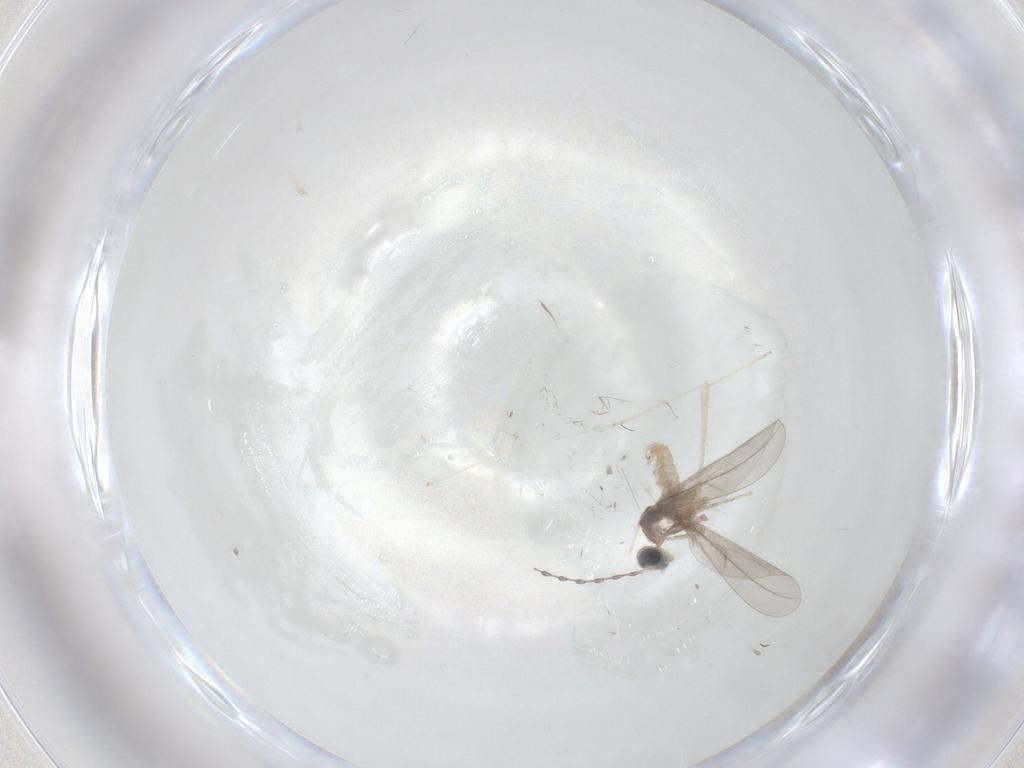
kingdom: Animalia
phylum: Arthropoda
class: Insecta
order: Diptera
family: Cecidomyiidae
